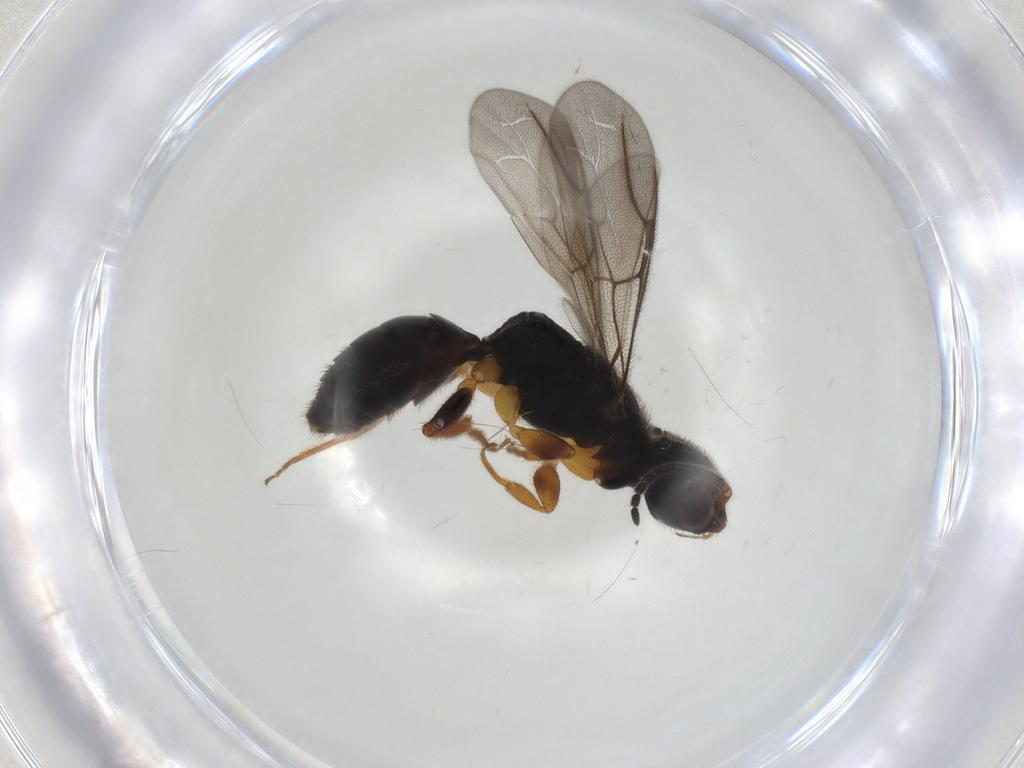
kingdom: Animalia
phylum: Arthropoda
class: Insecta
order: Hymenoptera
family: Bethylidae
